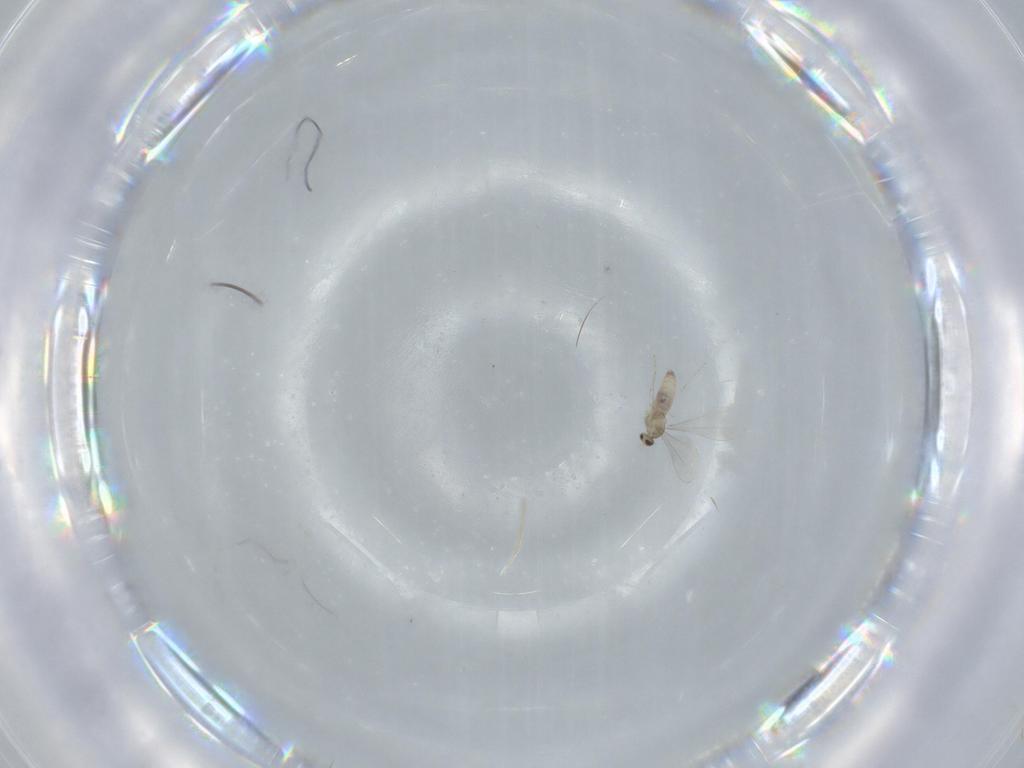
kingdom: Animalia
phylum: Arthropoda
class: Insecta
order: Diptera
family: Cecidomyiidae
